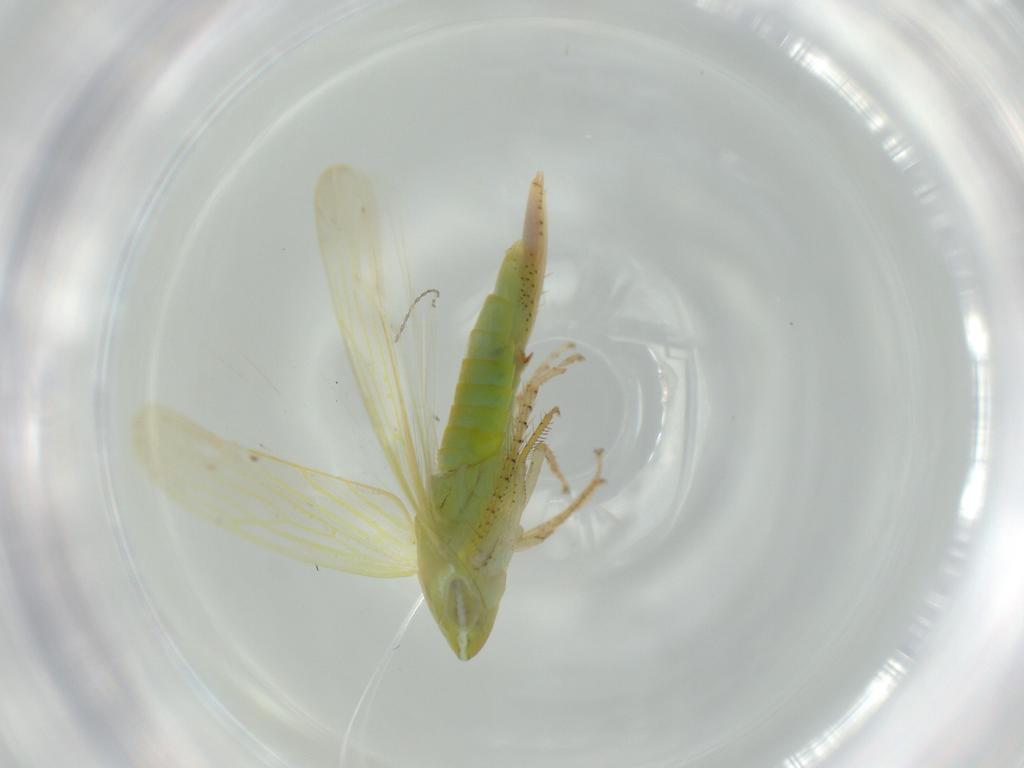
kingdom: Animalia
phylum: Arthropoda
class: Insecta
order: Hemiptera
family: Cicadellidae
